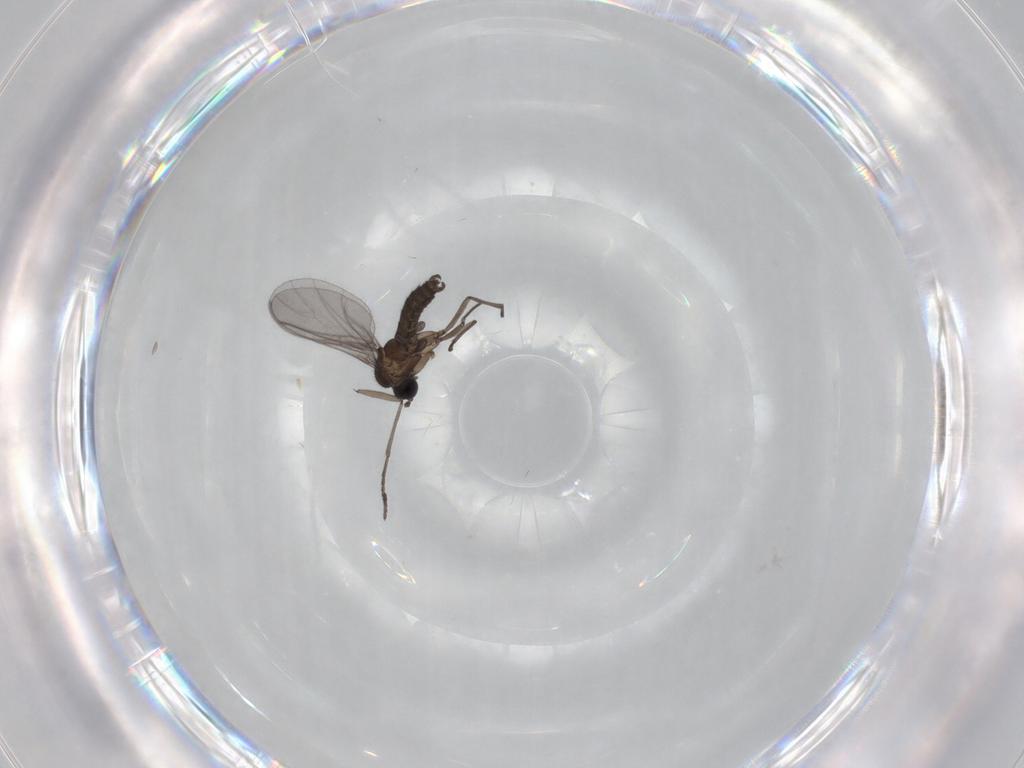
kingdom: Animalia
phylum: Arthropoda
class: Insecta
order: Diptera
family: Sciaridae
